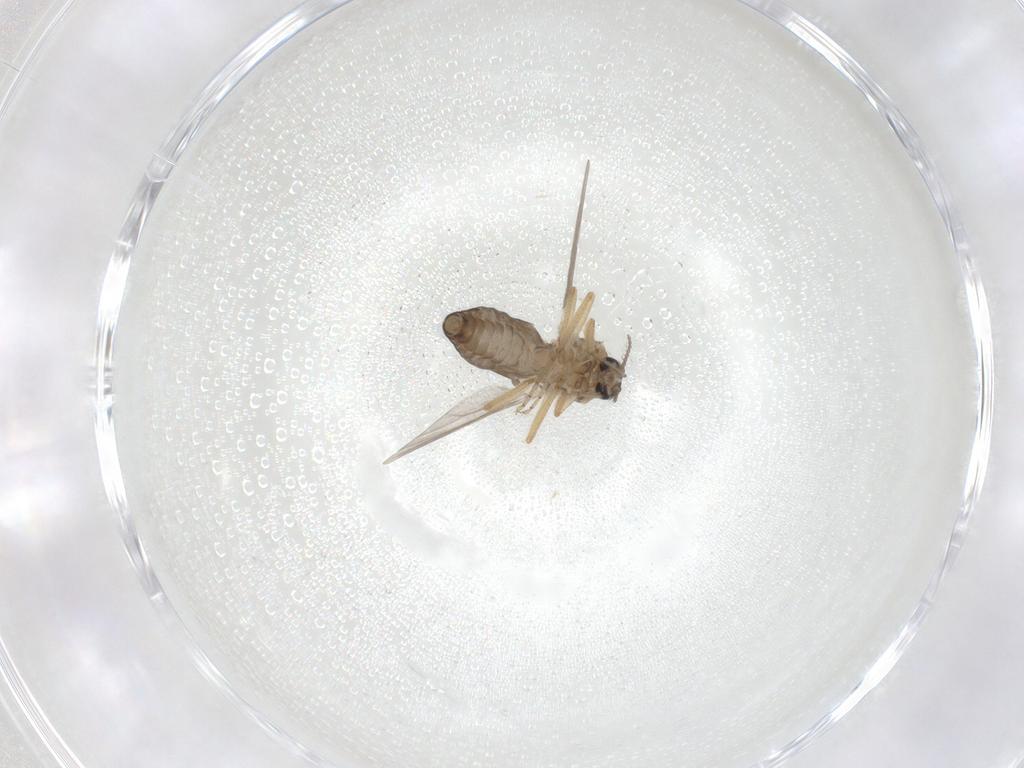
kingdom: Animalia
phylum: Arthropoda
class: Insecta
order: Diptera
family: Ceratopogonidae
